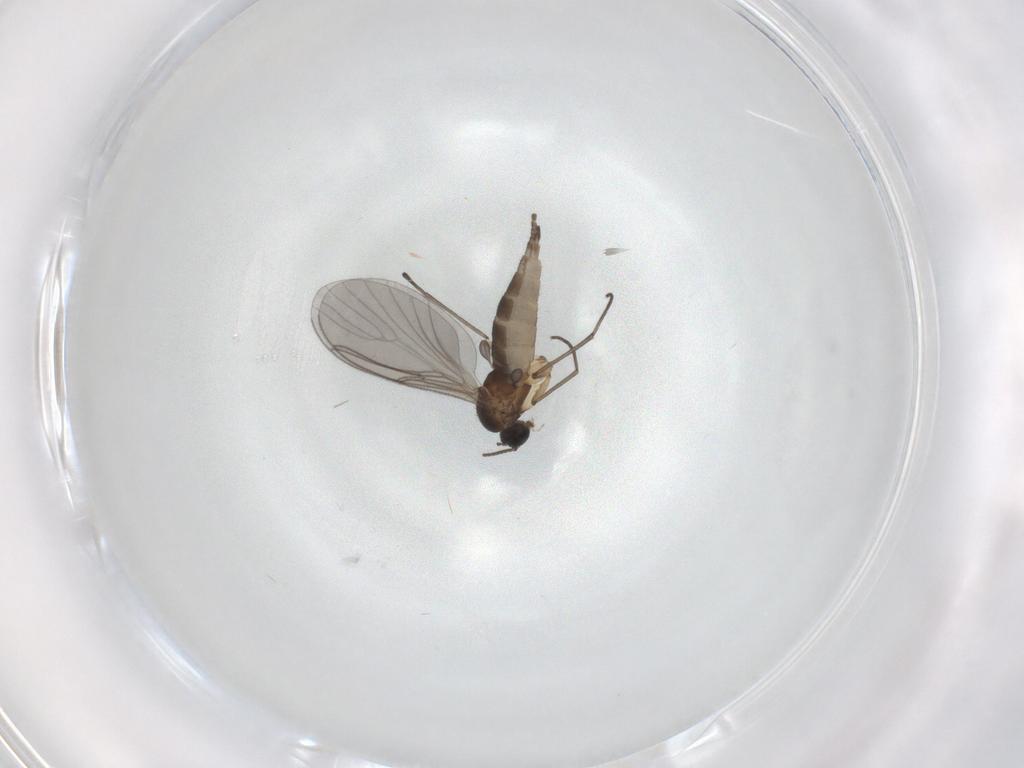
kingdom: Animalia
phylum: Arthropoda
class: Insecta
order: Diptera
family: Sciaridae
